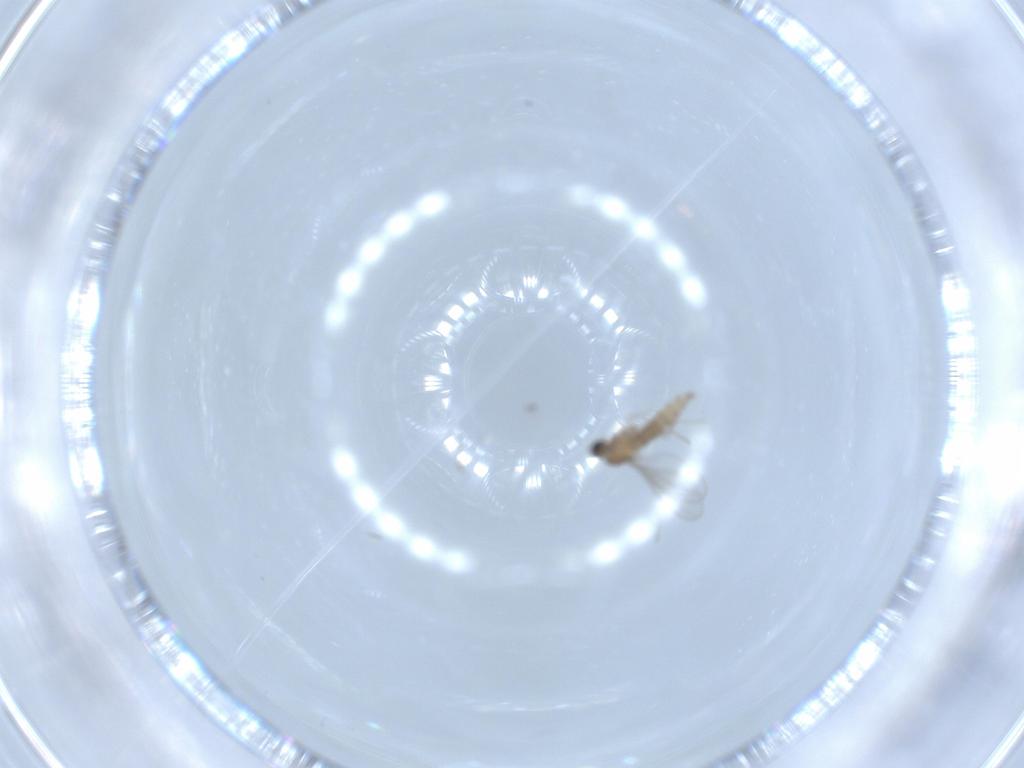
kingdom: Animalia
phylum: Arthropoda
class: Insecta
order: Diptera
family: Cecidomyiidae
